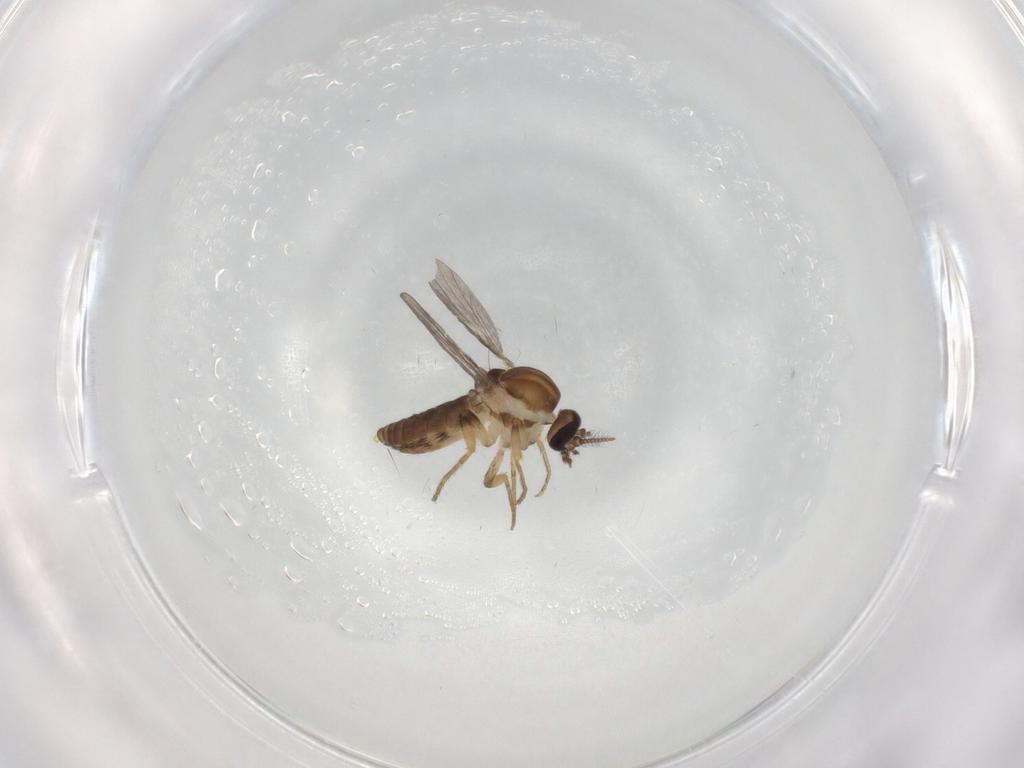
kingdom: Animalia
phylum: Arthropoda
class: Insecta
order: Diptera
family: Ceratopogonidae
